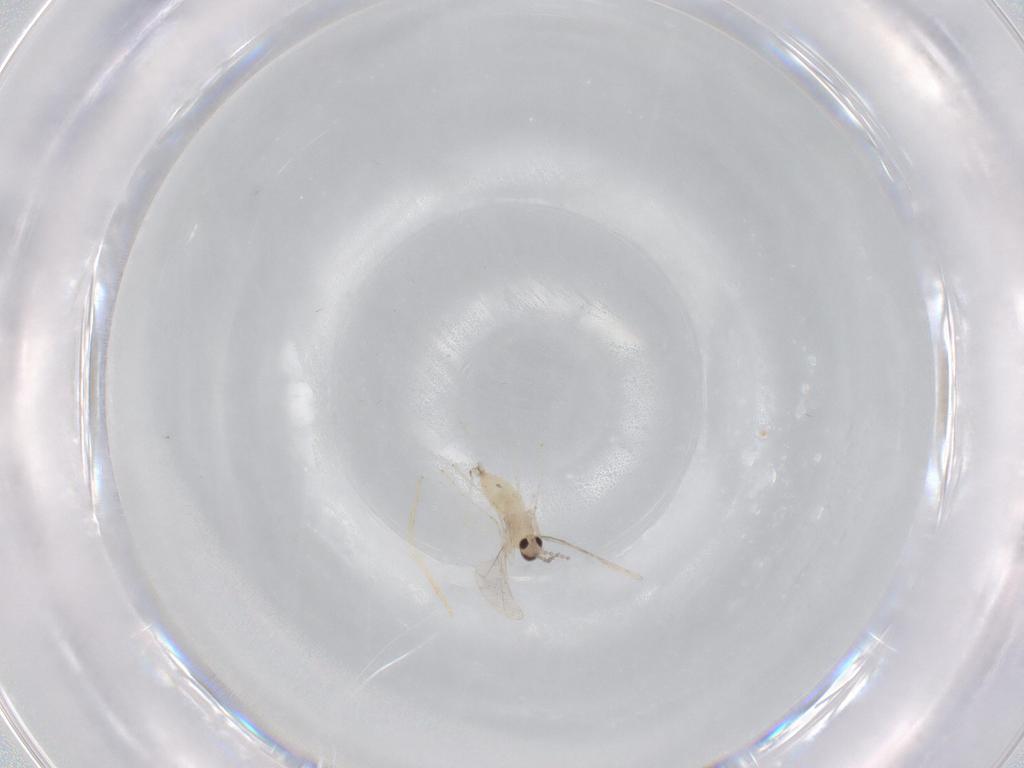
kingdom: Animalia
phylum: Arthropoda
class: Insecta
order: Diptera
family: Cecidomyiidae
